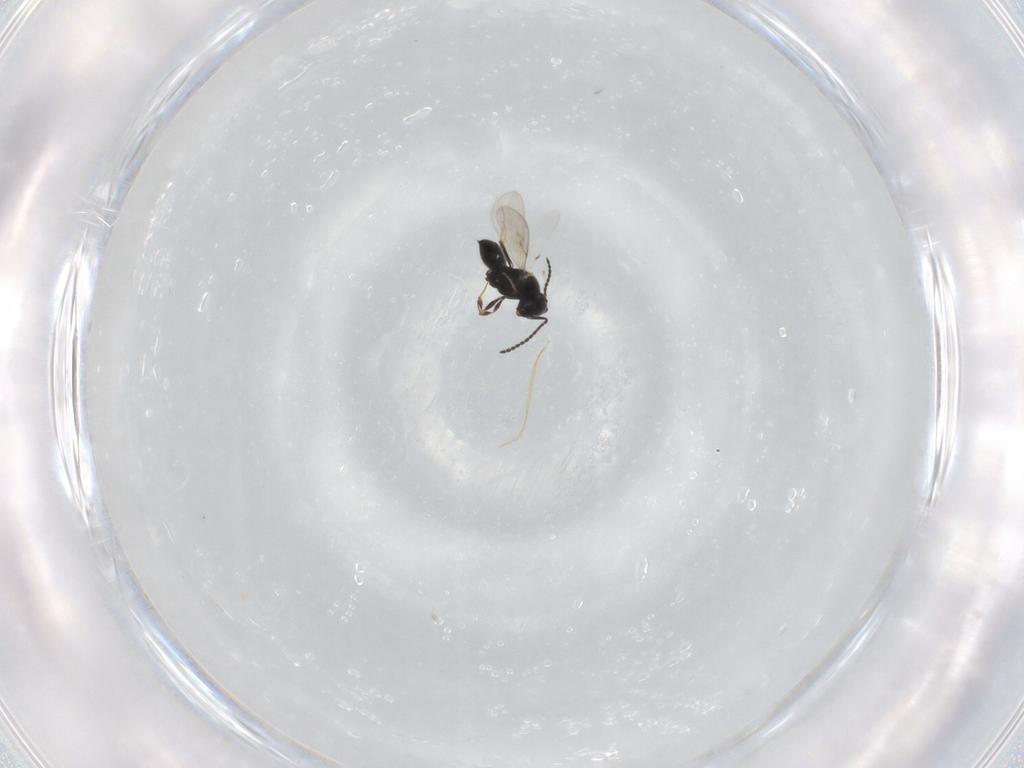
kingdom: Animalia
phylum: Arthropoda
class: Insecta
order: Hymenoptera
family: Scelionidae
